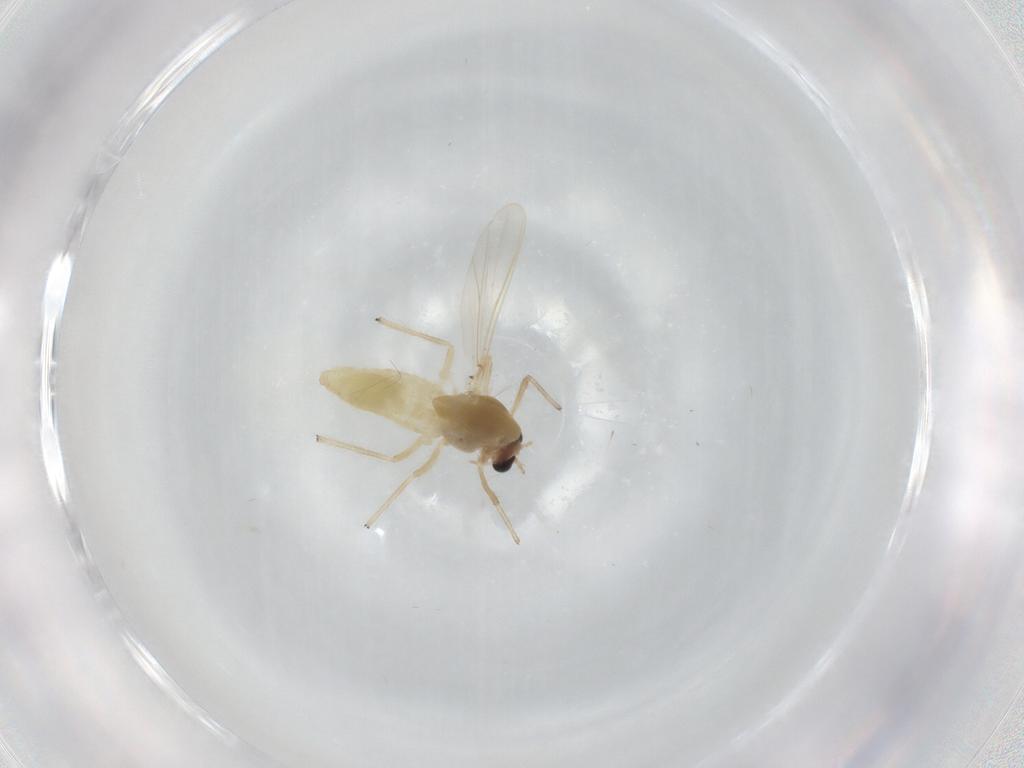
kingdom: Animalia
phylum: Arthropoda
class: Insecta
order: Diptera
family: Chironomidae
